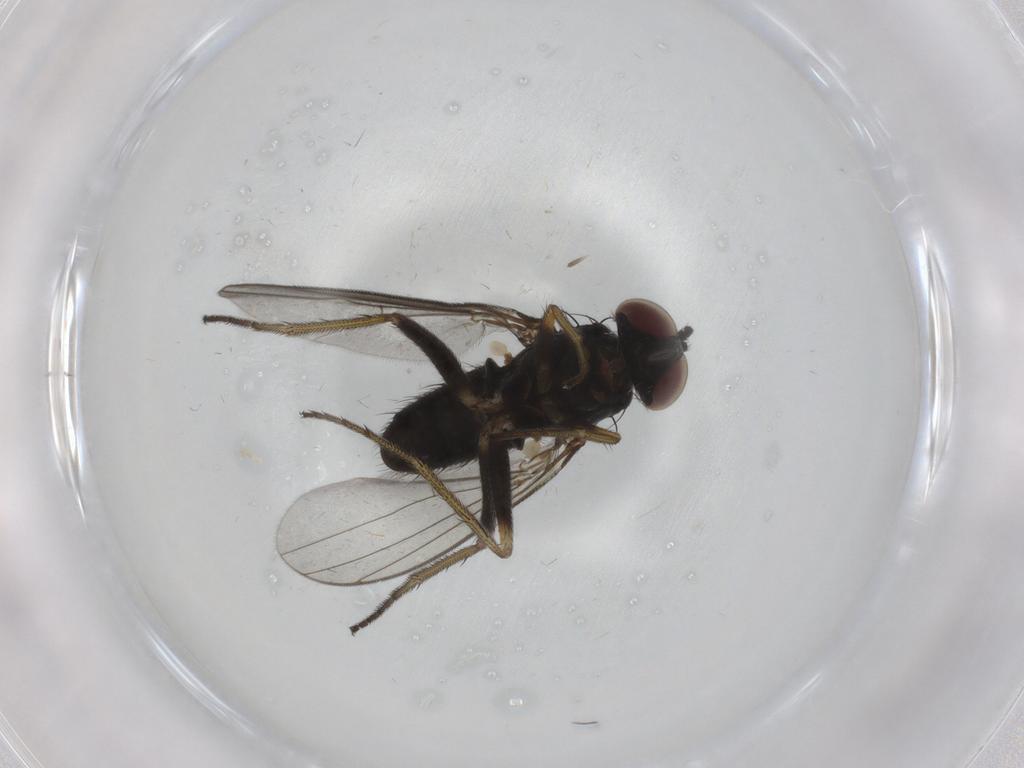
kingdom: Animalia
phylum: Arthropoda
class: Insecta
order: Diptera
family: Dolichopodidae
